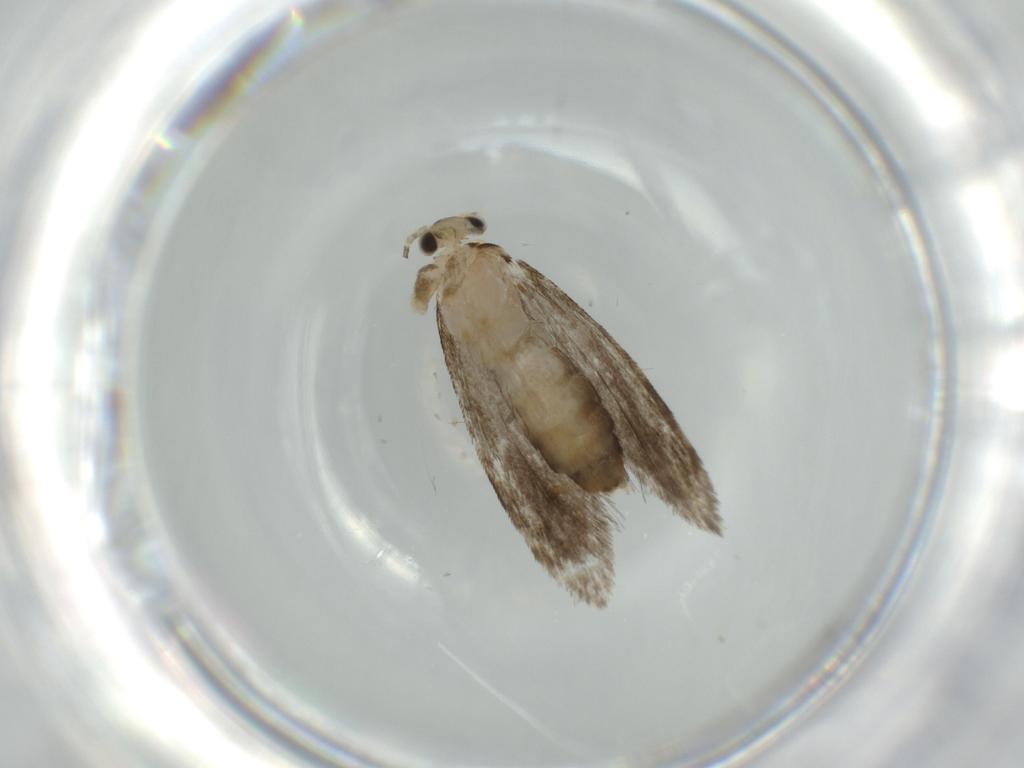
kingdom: Animalia
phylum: Arthropoda
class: Insecta
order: Lepidoptera
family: Tineidae
